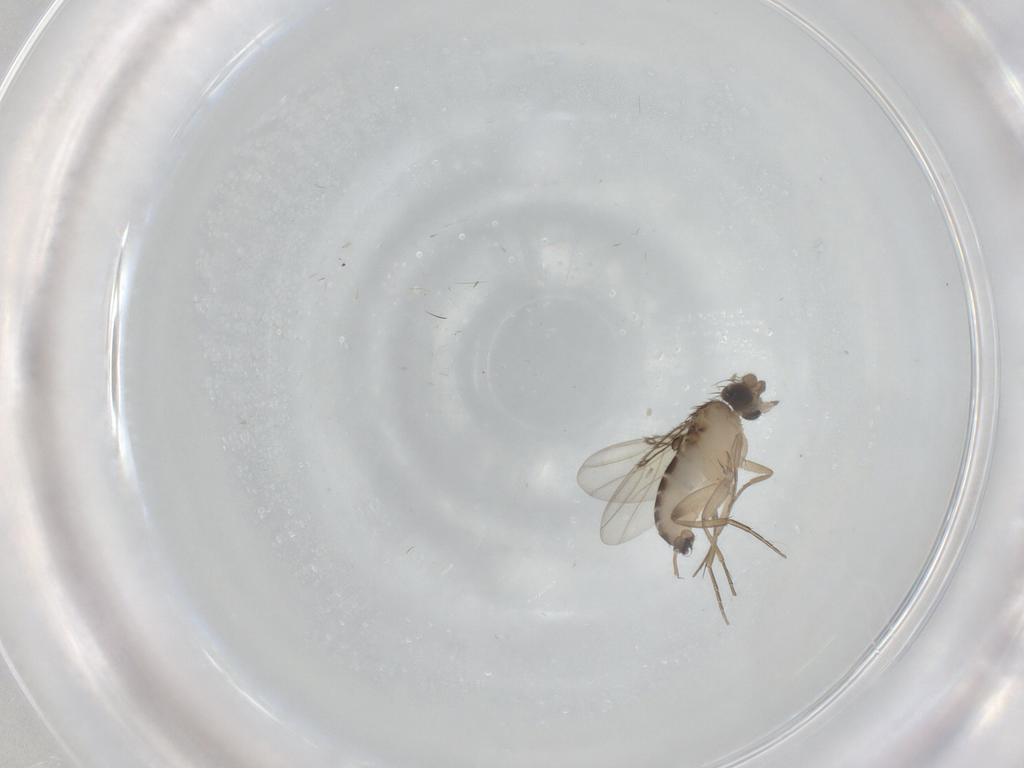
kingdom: Animalia
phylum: Arthropoda
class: Insecta
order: Diptera
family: Phoridae
